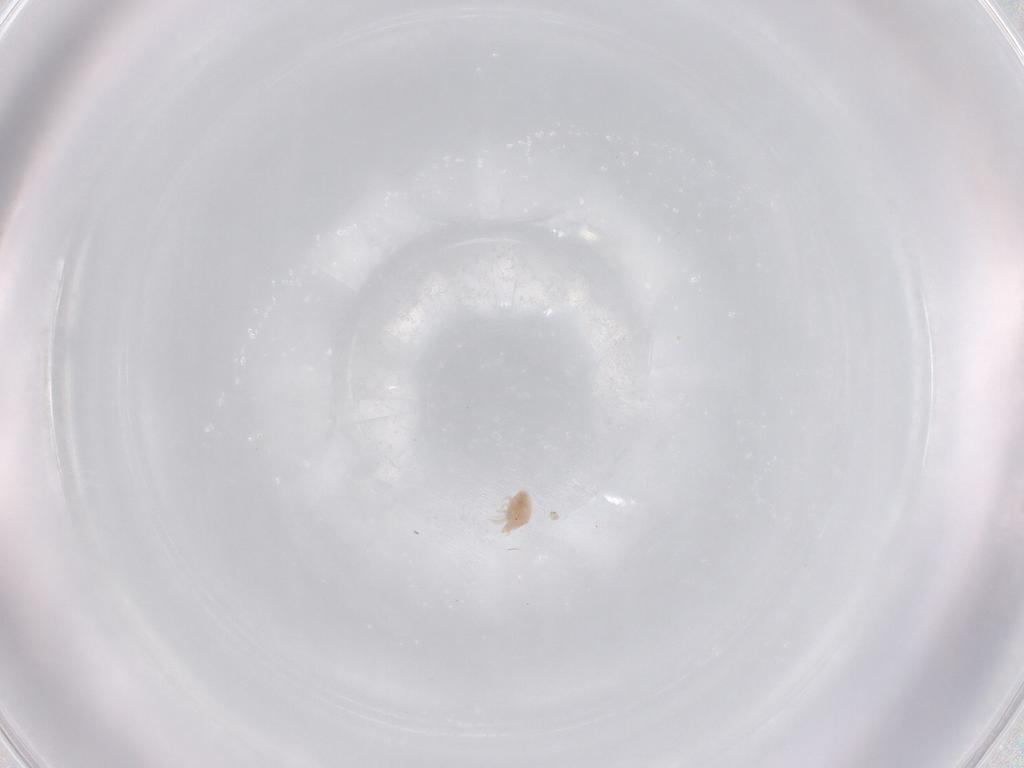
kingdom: Animalia
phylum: Arthropoda
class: Arachnida
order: Trombidiformes
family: Bdellidae
